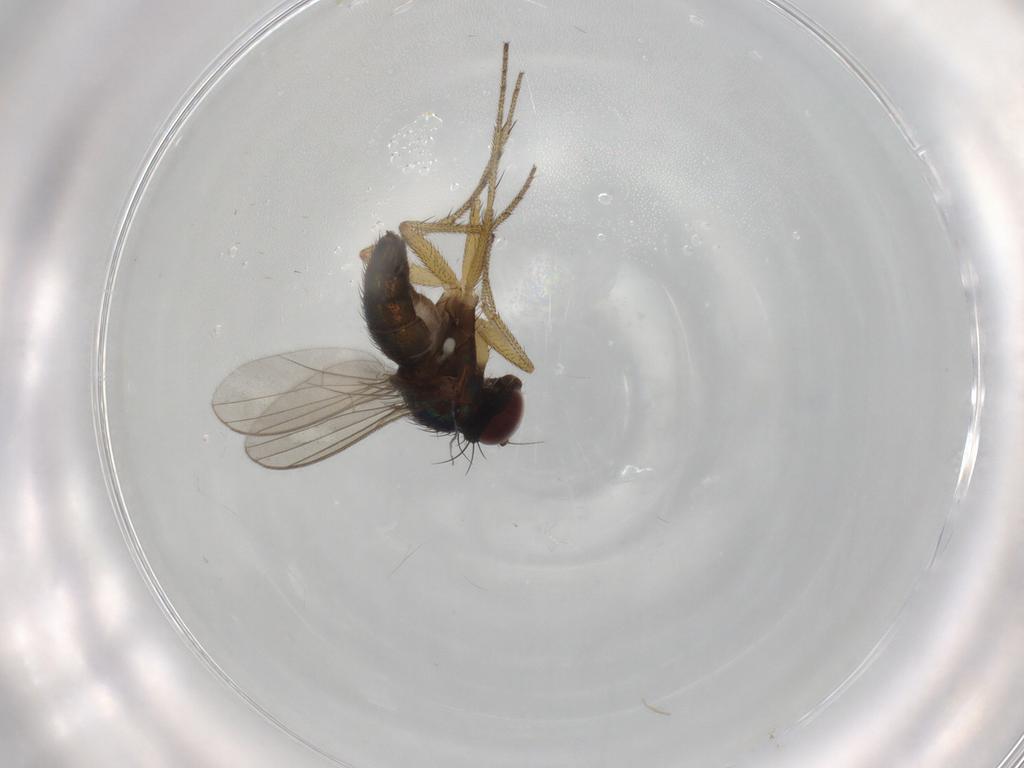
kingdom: Animalia
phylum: Arthropoda
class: Insecta
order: Diptera
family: Dolichopodidae
